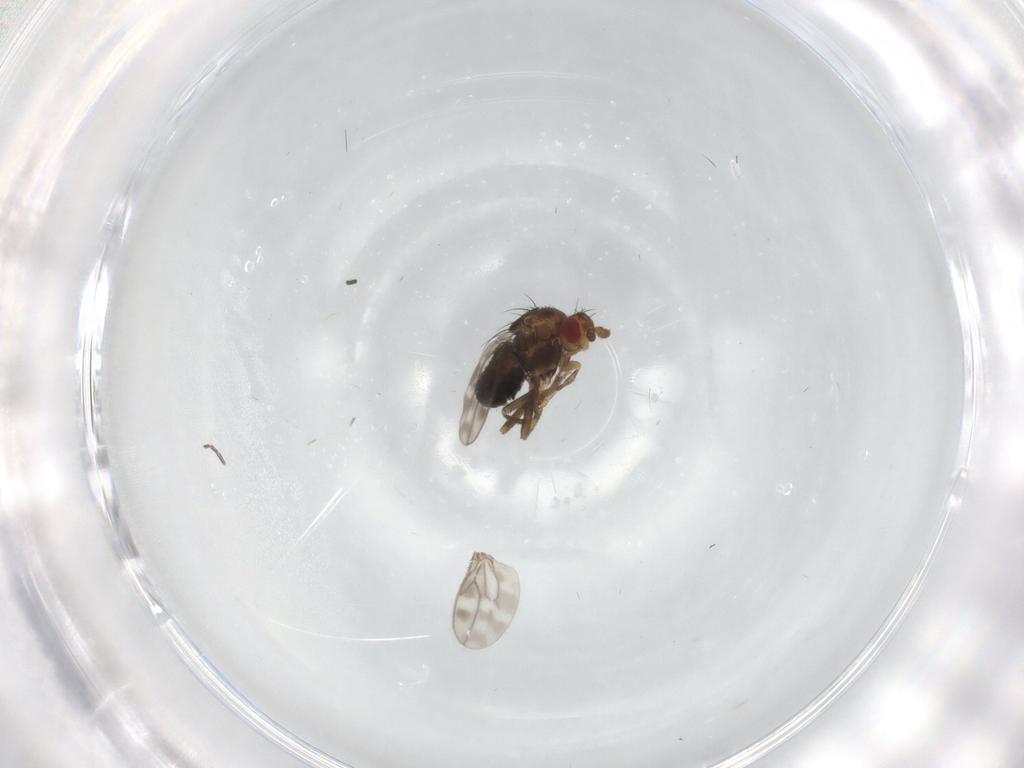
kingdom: Animalia
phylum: Arthropoda
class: Insecta
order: Diptera
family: Sphaeroceridae
